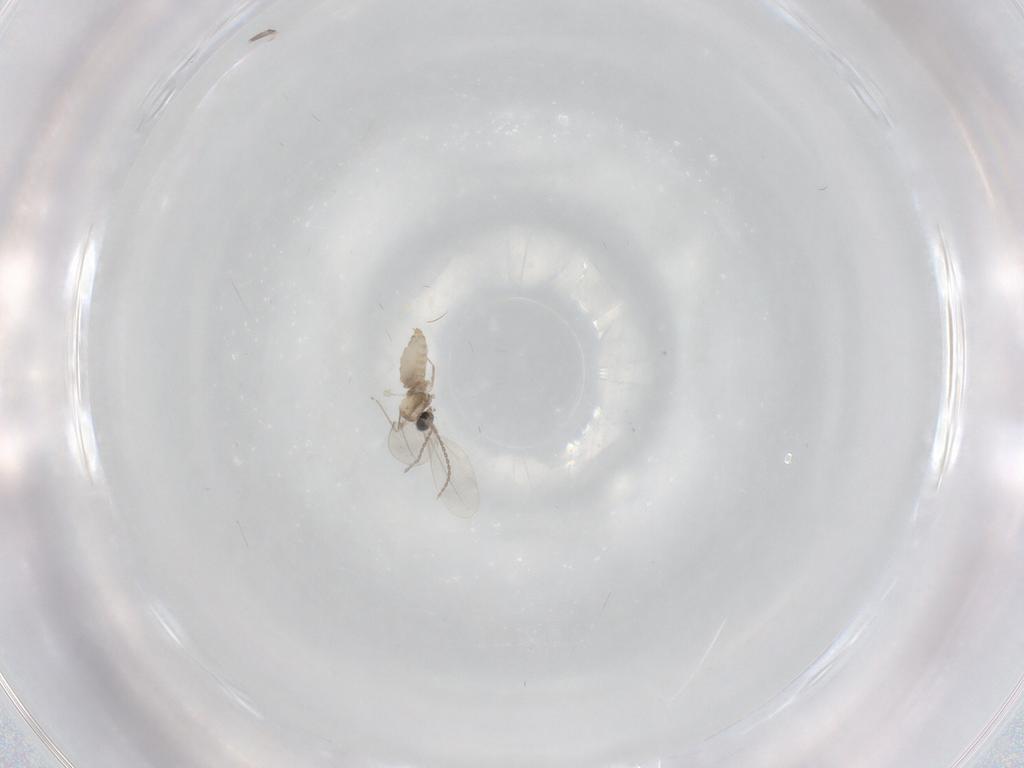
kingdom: Animalia
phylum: Arthropoda
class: Insecta
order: Diptera
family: Cecidomyiidae
